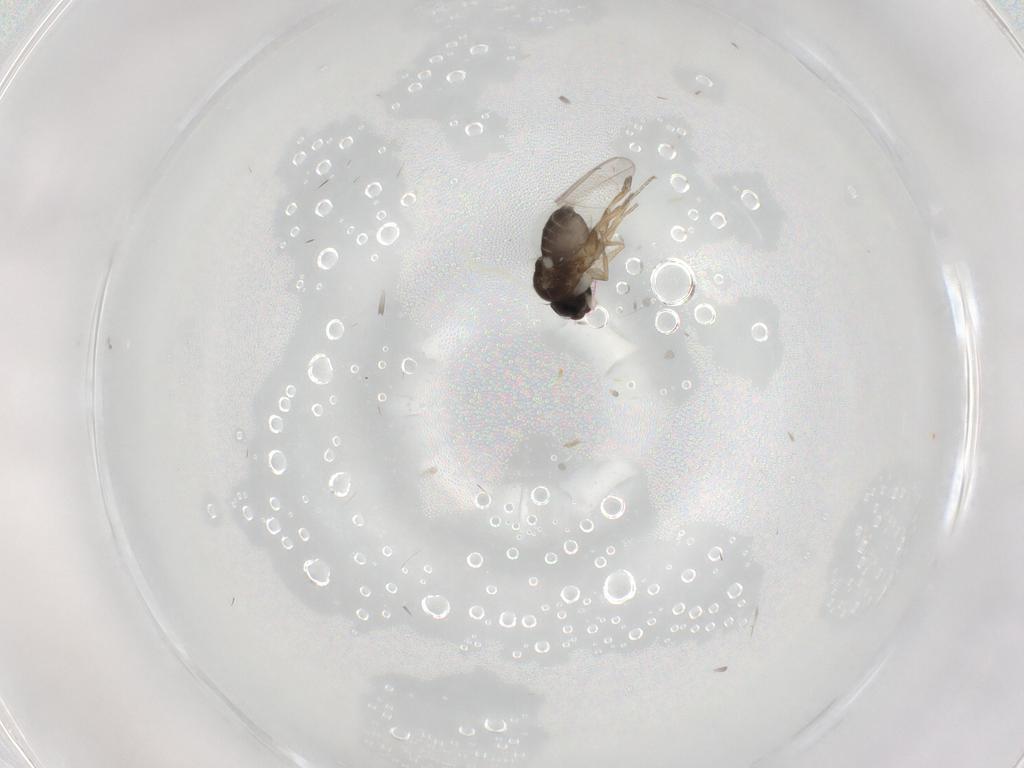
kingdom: Animalia
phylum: Arthropoda
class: Insecta
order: Diptera
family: Dolichopodidae
